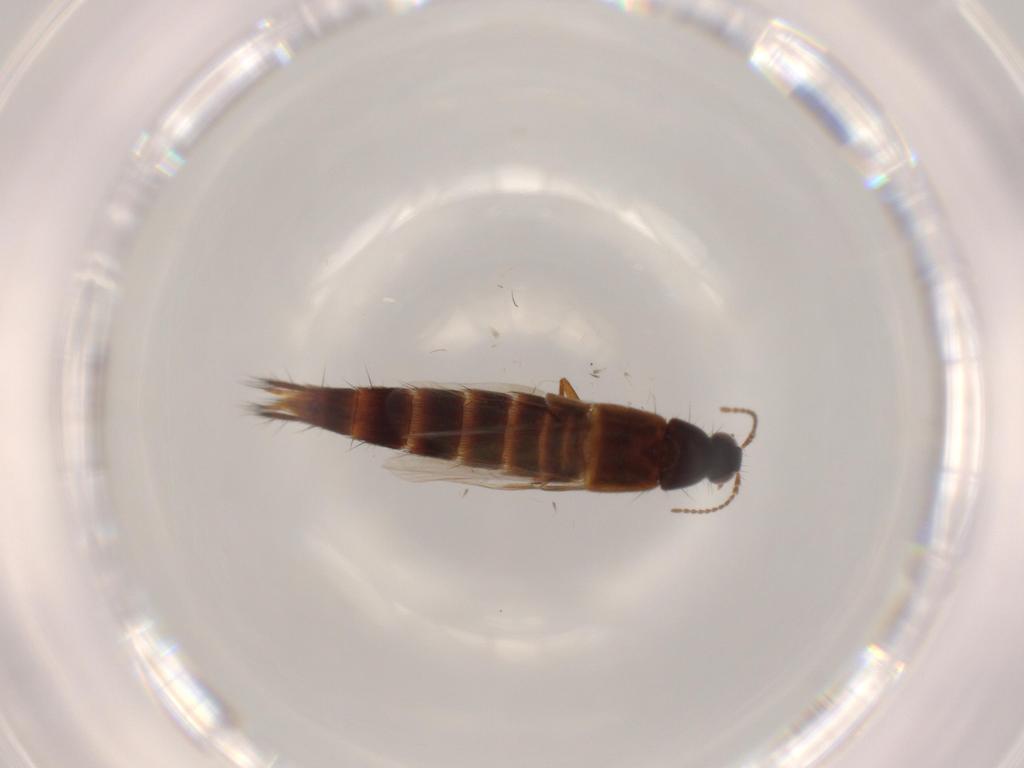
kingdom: Animalia
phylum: Arthropoda
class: Insecta
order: Coleoptera
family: Staphylinidae
